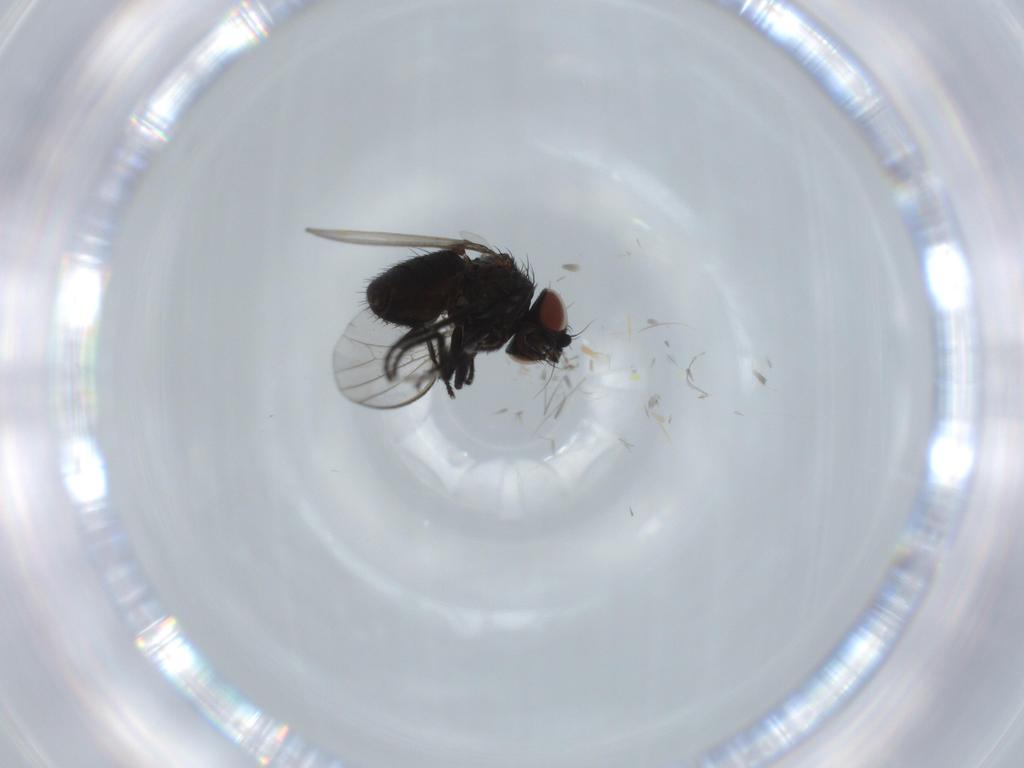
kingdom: Animalia
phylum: Arthropoda
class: Insecta
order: Diptera
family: Milichiidae
